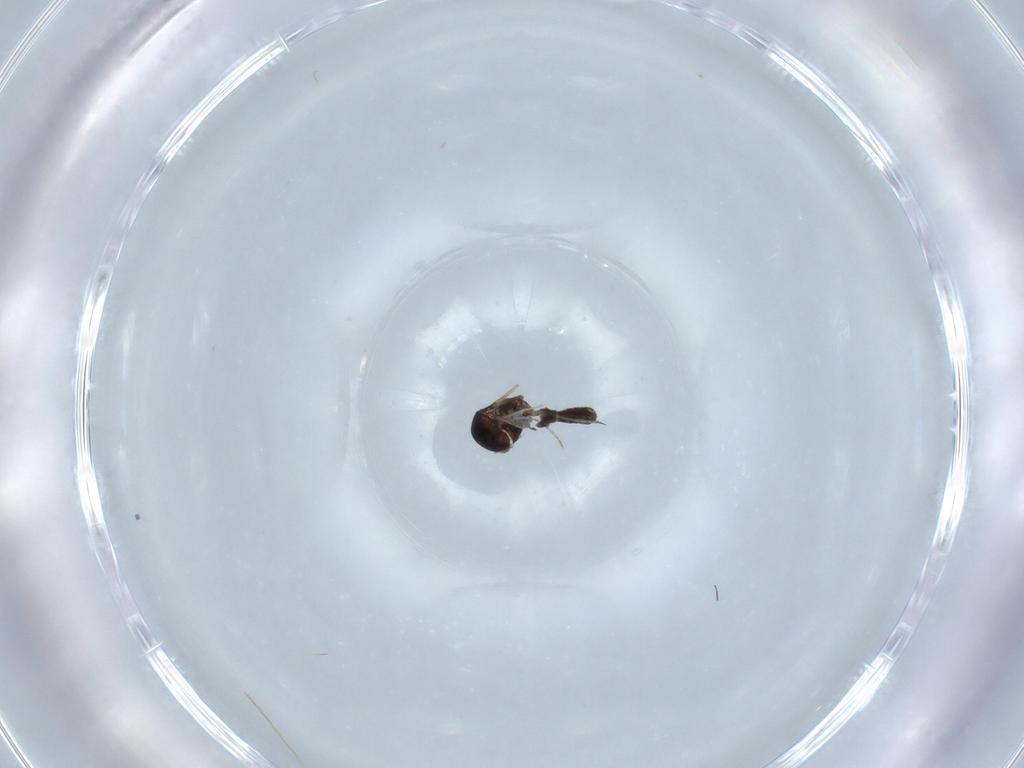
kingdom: Animalia
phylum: Arthropoda
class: Insecta
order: Diptera
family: Ceratopogonidae
